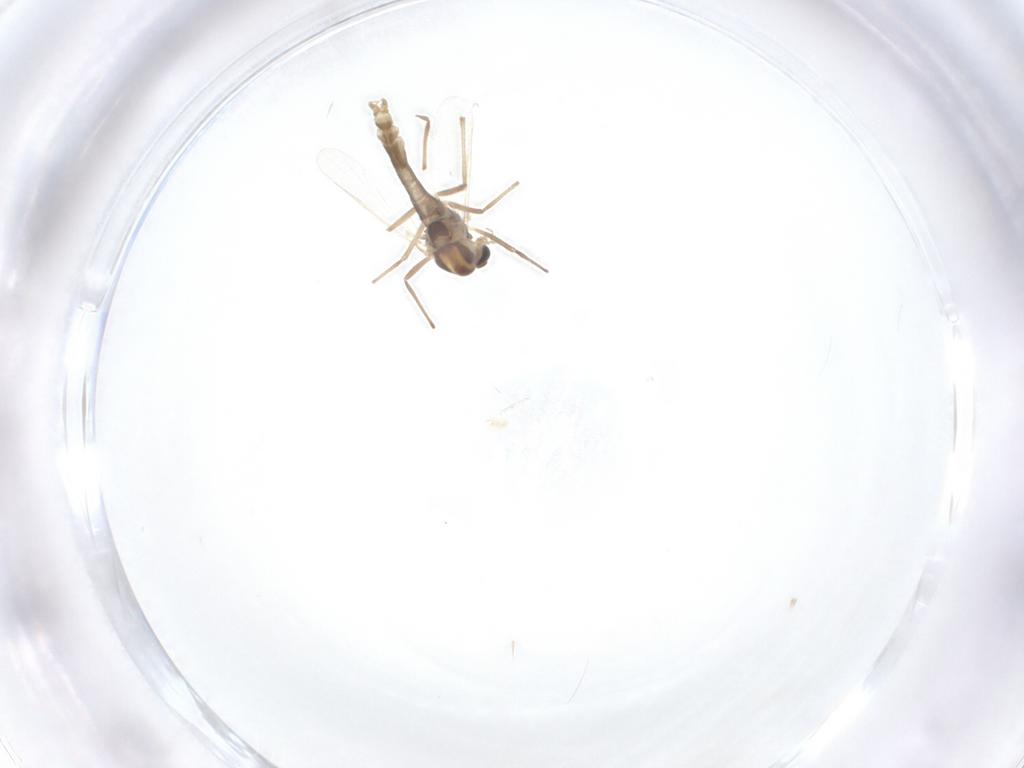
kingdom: Animalia
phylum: Arthropoda
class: Insecta
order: Diptera
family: Chironomidae
